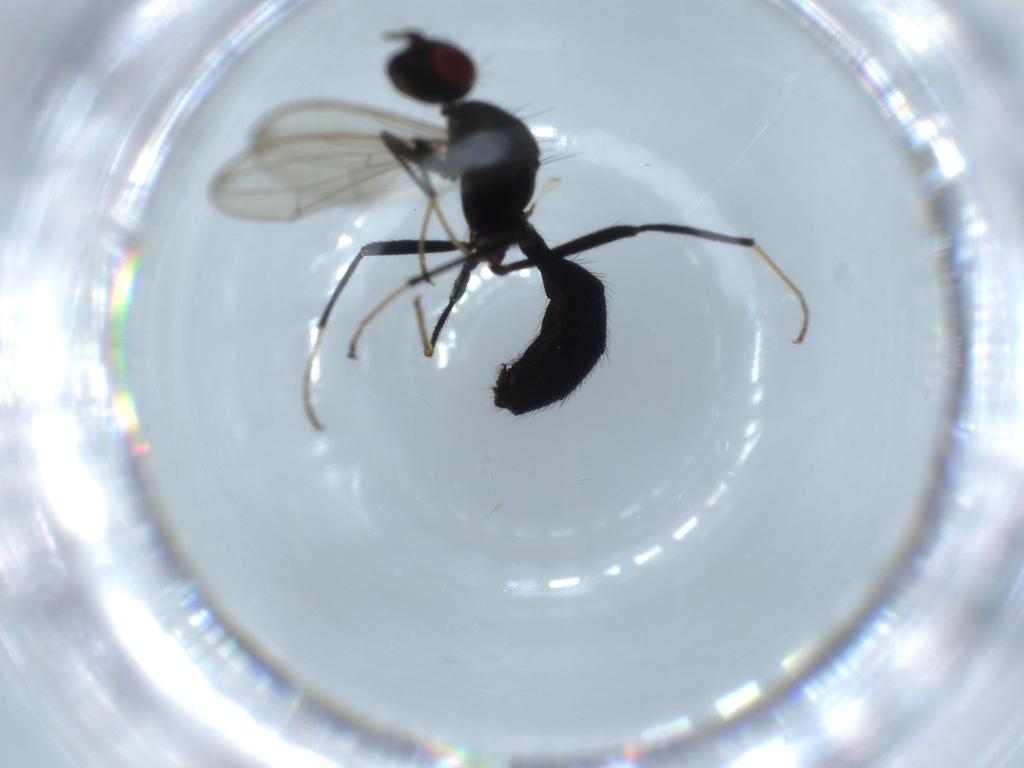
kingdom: Animalia
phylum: Arthropoda
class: Insecta
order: Diptera
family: Richardiidae
